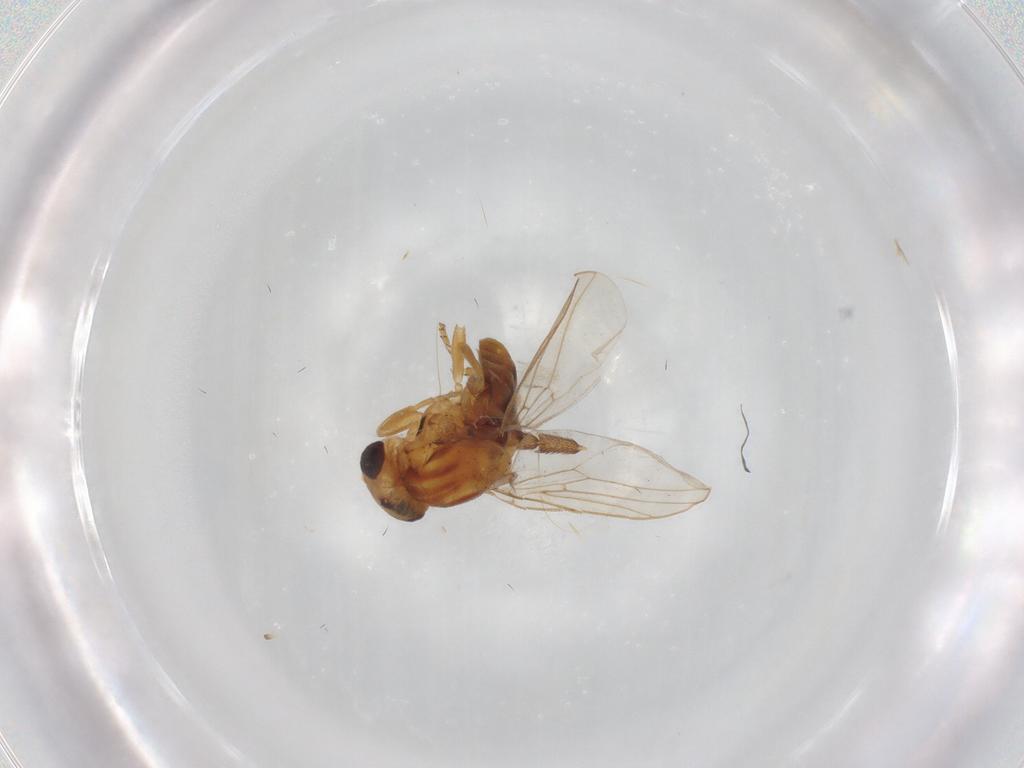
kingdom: Animalia
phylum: Arthropoda
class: Insecta
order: Diptera
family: Chloropidae
